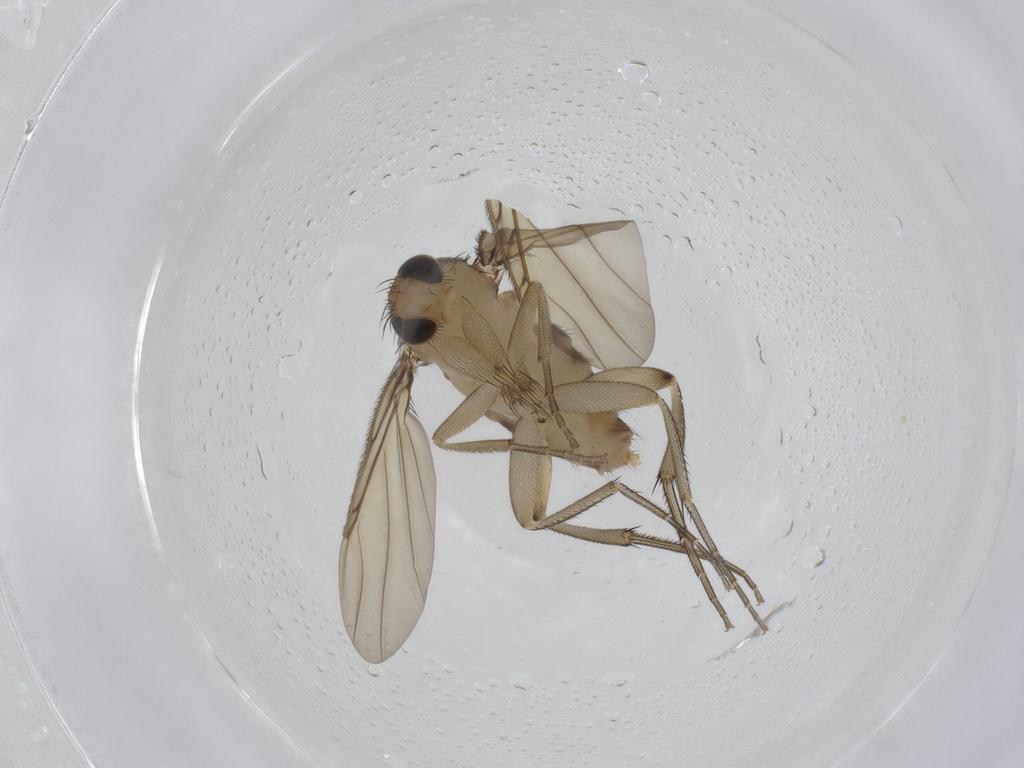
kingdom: Animalia
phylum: Arthropoda
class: Insecta
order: Diptera
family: Phoridae
